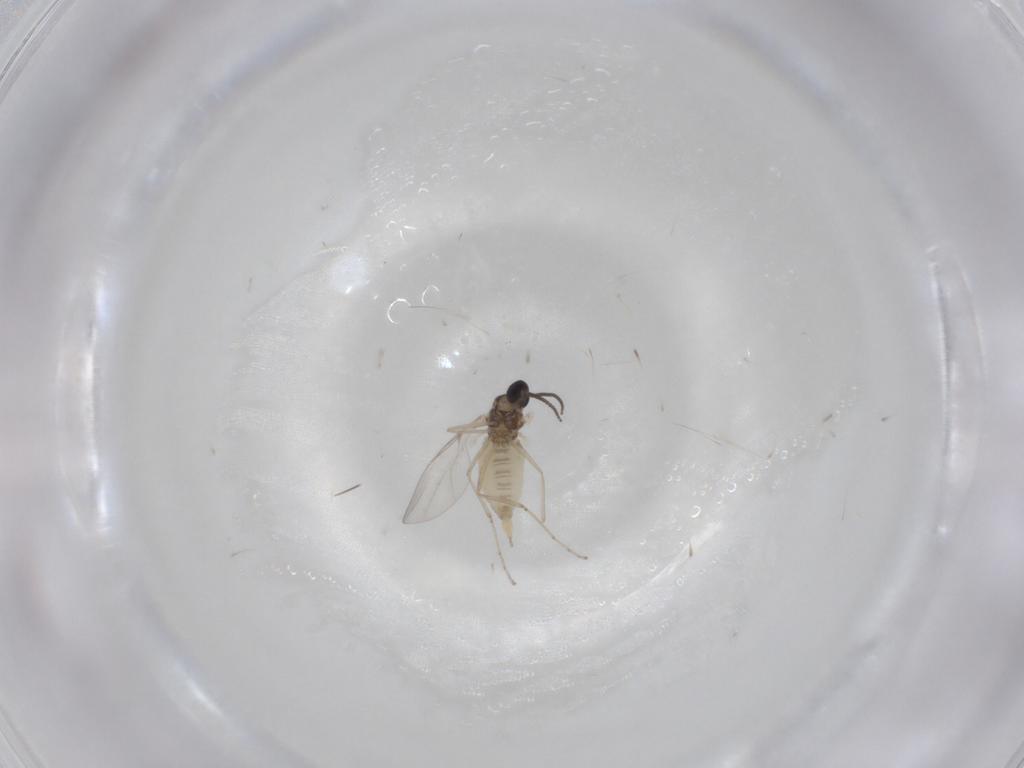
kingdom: Animalia
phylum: Arthropoda
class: Insecta
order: Diptera
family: Cecidomyiidae
